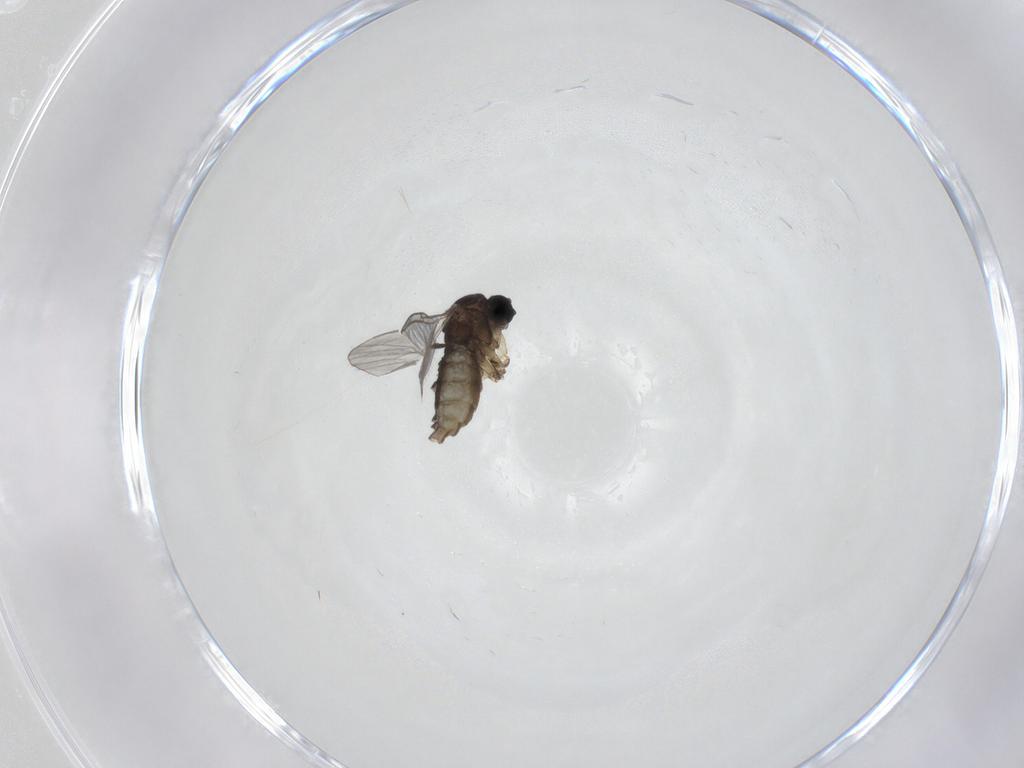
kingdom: Animalia
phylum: Arthropoda
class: Insecta
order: Diptera
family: Sciaridae
